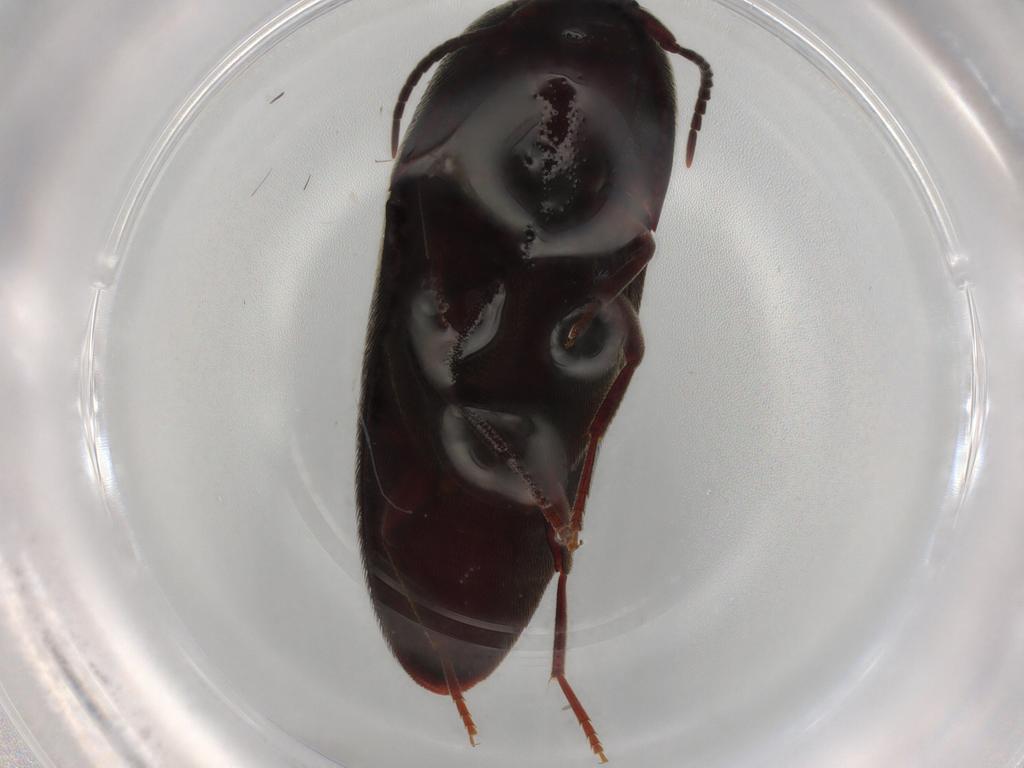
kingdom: Animalia
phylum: Arthropoda
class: Insecta
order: Coleoptera
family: Eucnemidae
